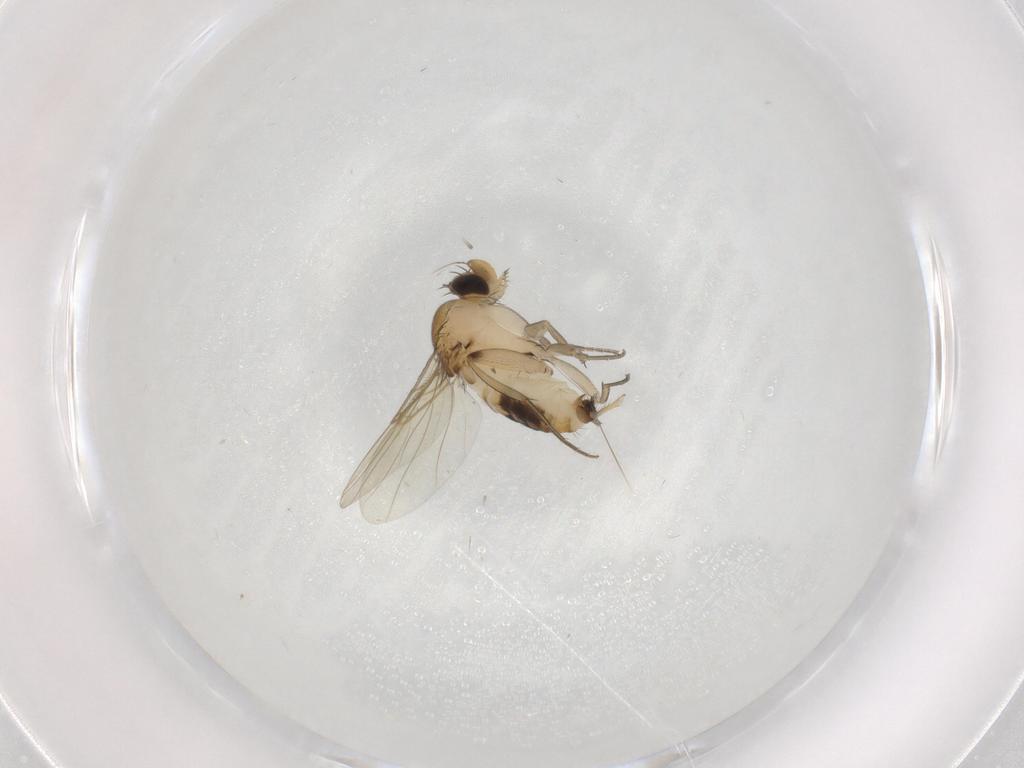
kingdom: Animalia
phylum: Arthropoda
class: Insecta
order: Diptera
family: Phoridae
